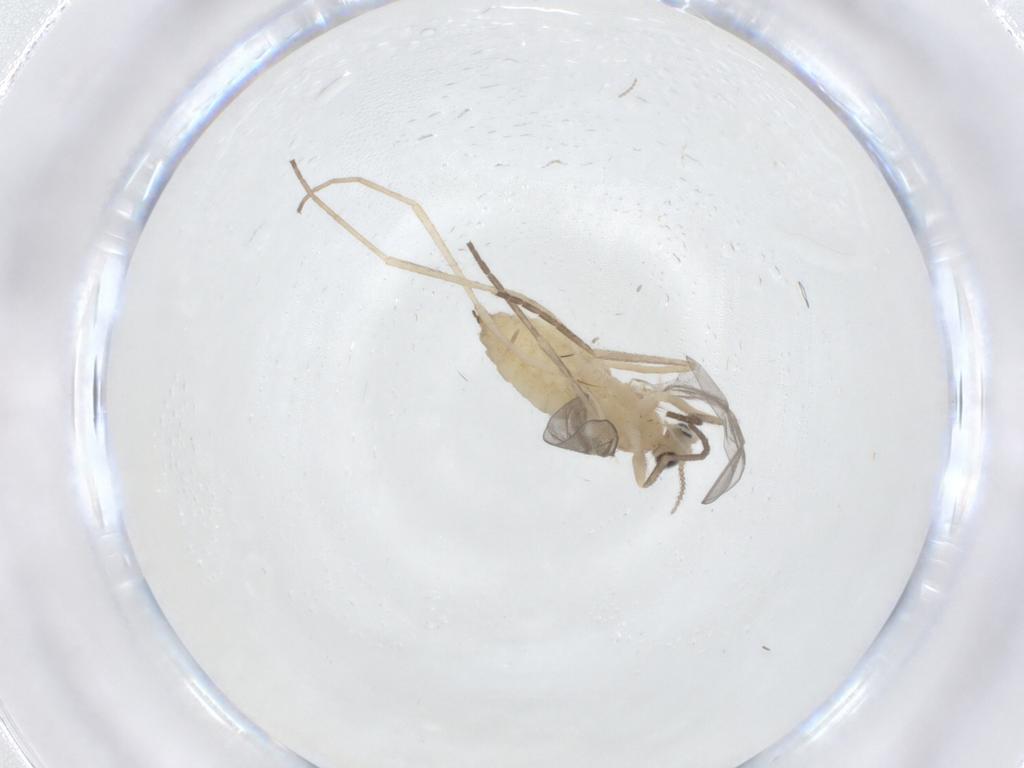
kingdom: Animalia
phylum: Arthropoda
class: Insecta
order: Diptera
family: Cecidomyiidae
